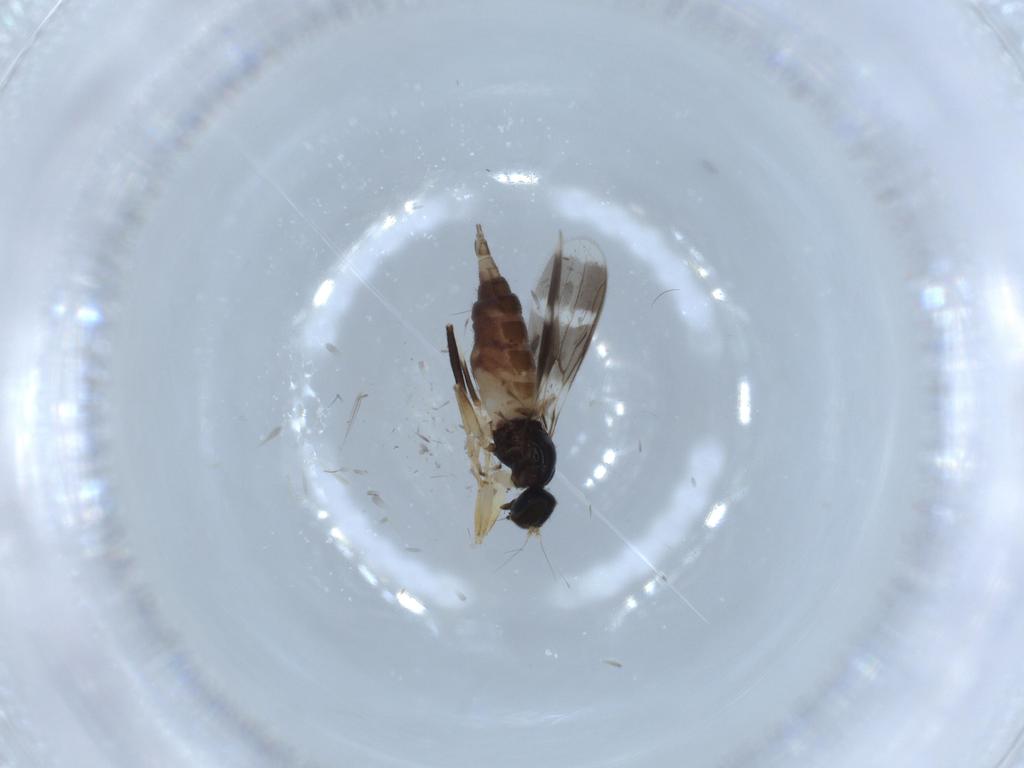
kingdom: Animalia
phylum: Arthropoda
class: Insecta
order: Diptera
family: Hybotidae
